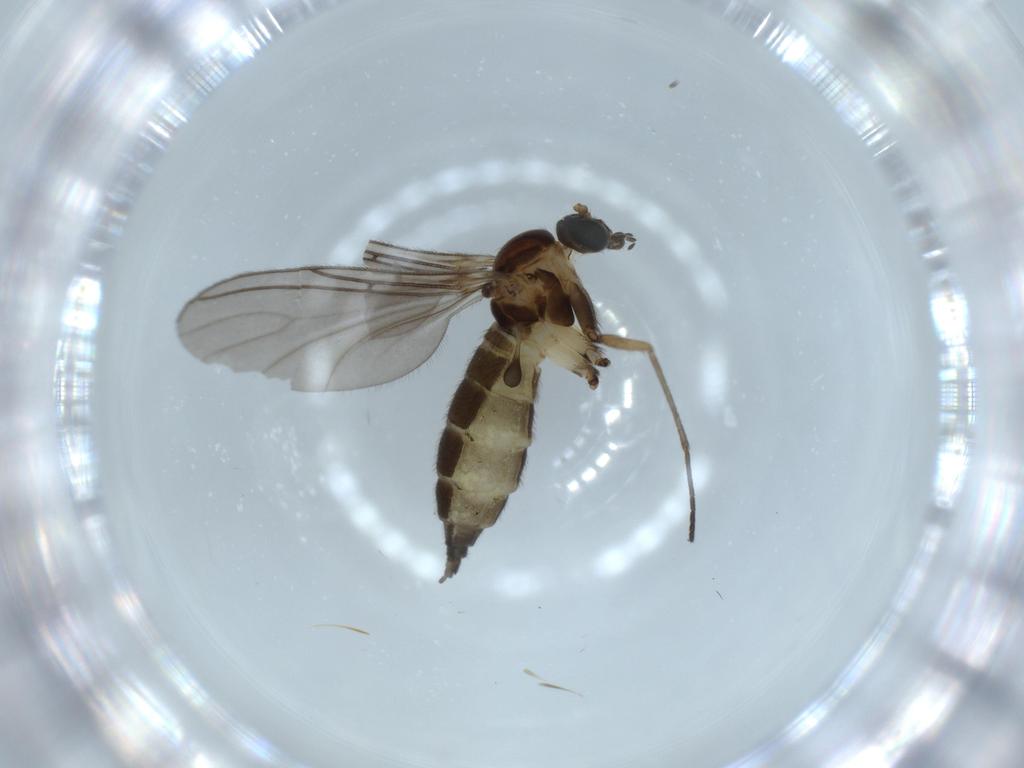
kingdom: Animalia
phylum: Arthropoda
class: Insecta
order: Diptera
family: Sciaridae
